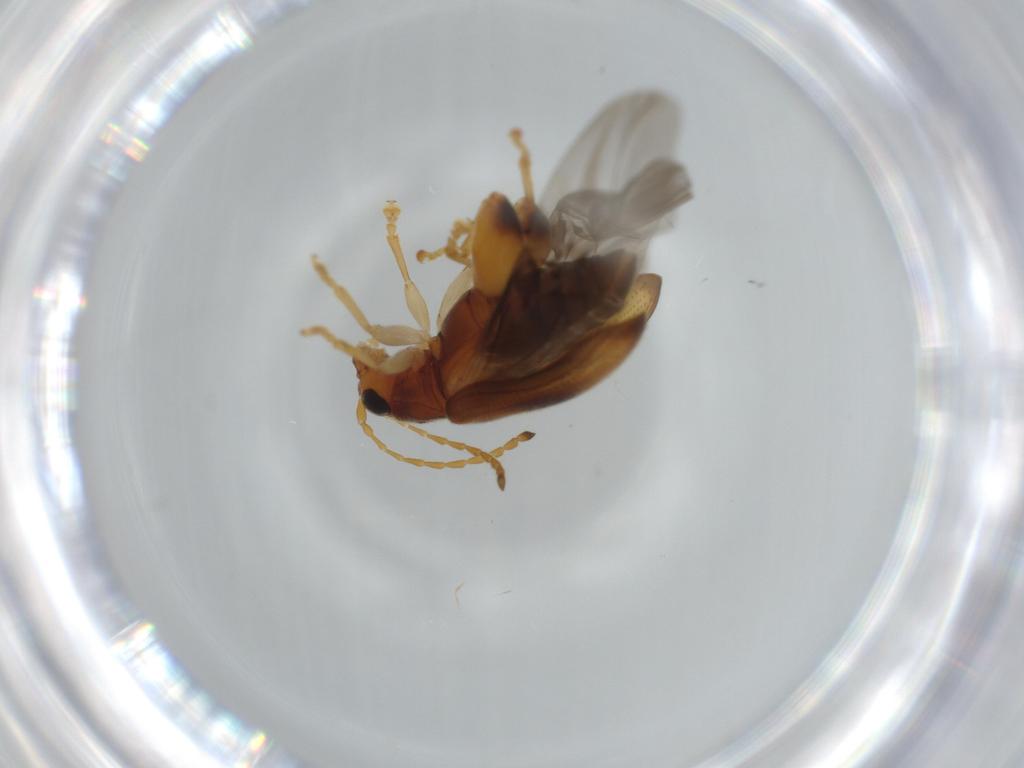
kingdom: Animalia
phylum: Arthropoda
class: Insecta
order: Coleoptera
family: Chrysomelidae
